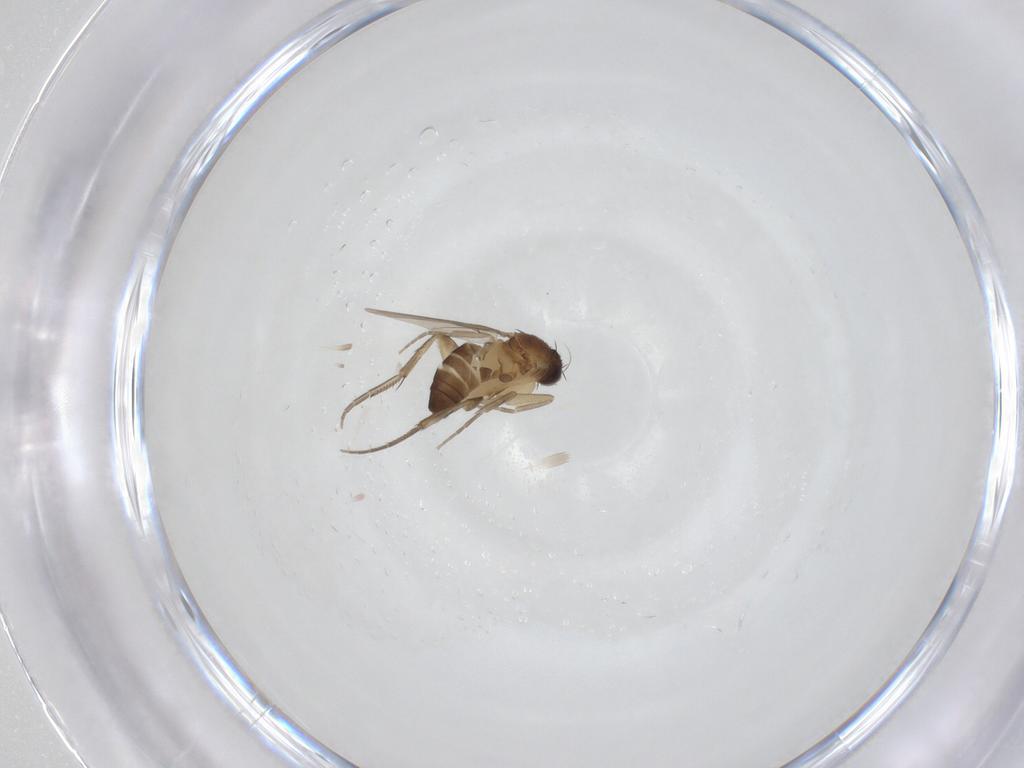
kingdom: Animalia
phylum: Arthropoda
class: Insecta
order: Diptera
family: Phoridae
